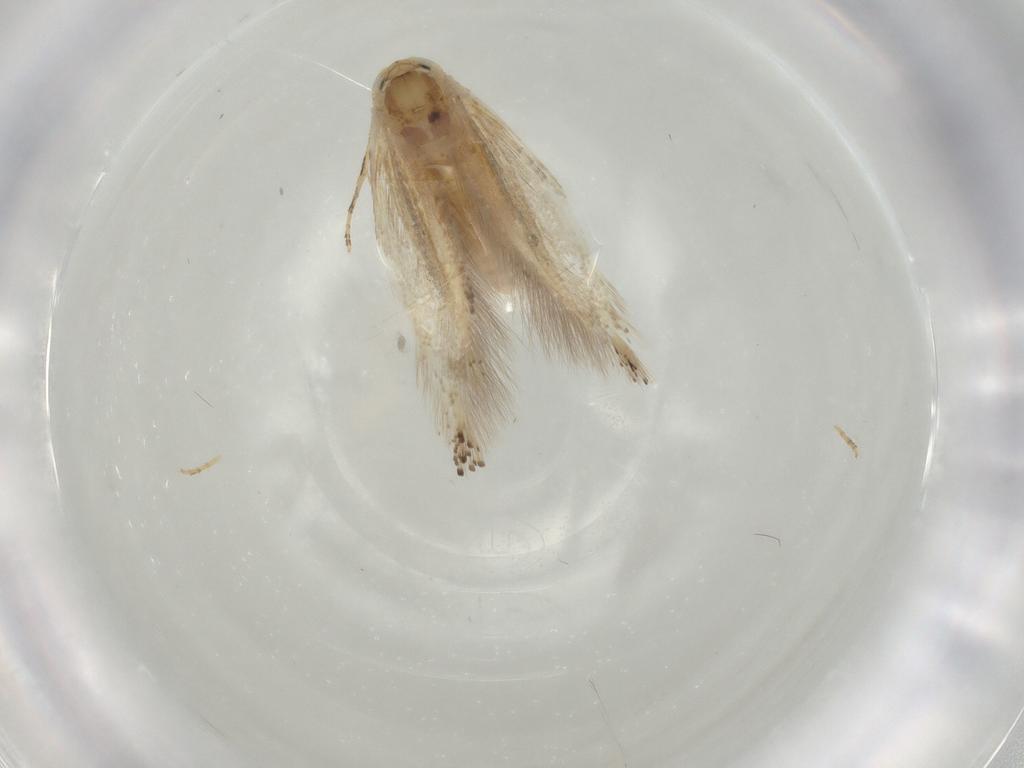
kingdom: Animalia
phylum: Arthropoda
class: Insecta
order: Lepidoptera
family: Bucculatricidae
